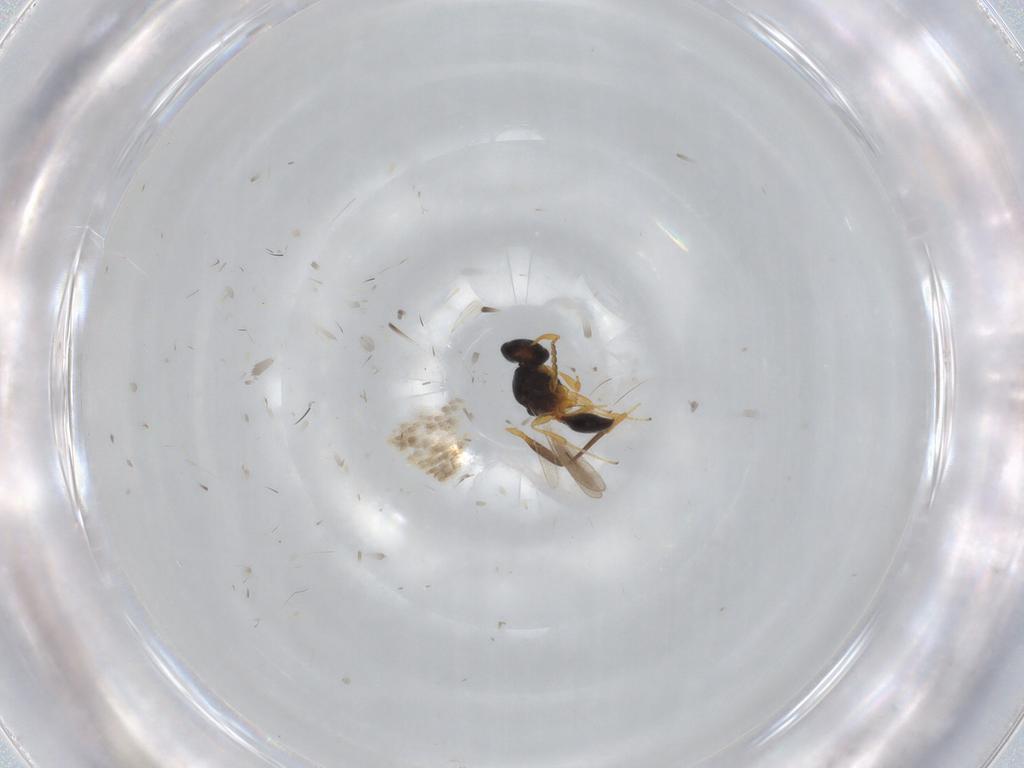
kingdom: Animalia
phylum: Arthropoda
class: Insecta
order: Hymenoptera
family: Platygastridae
